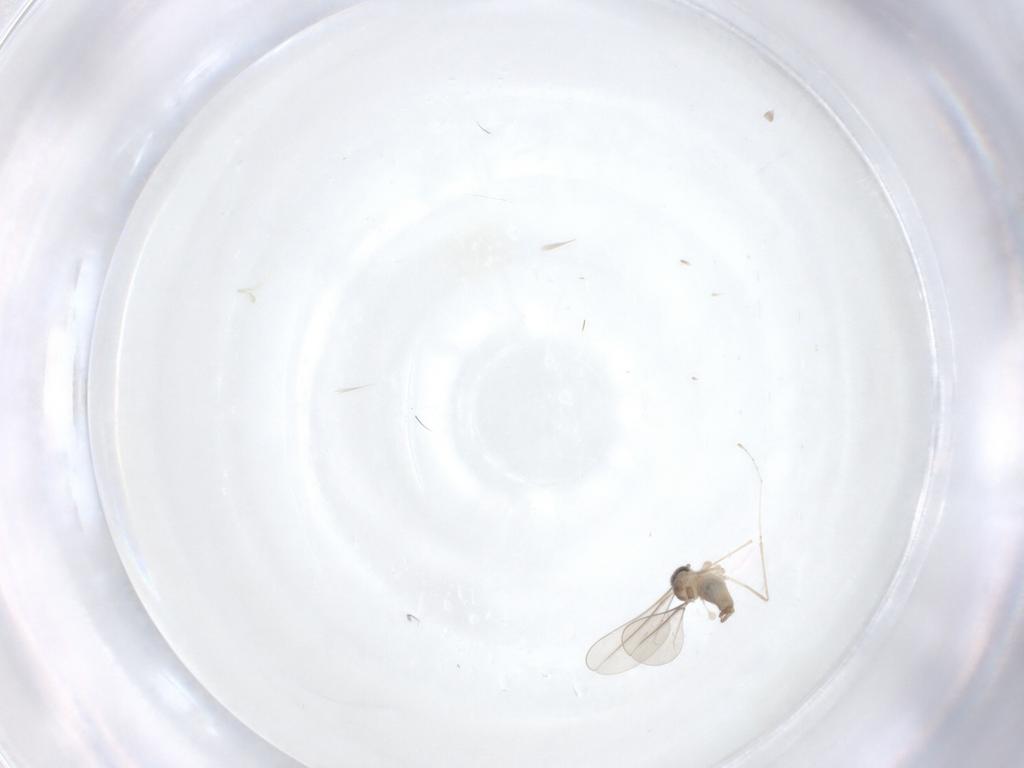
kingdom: Animalia
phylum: Arthropoda
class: Insecta
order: Diptera
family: Cecidomyiidae
